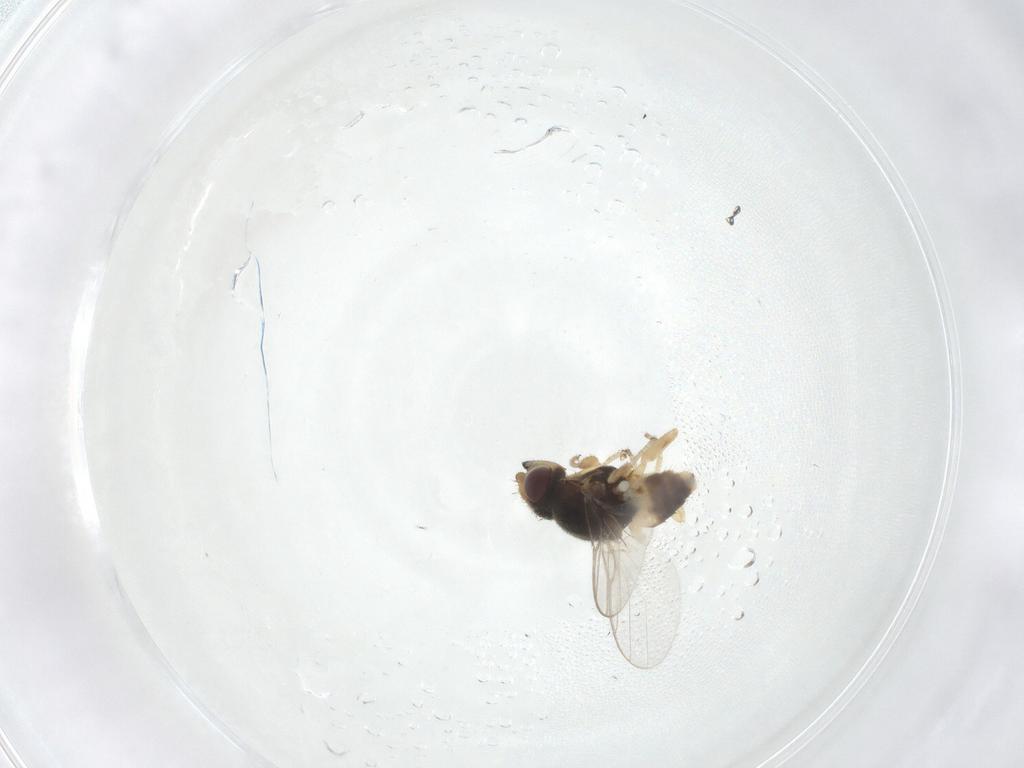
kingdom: Animalia
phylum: Arthropoda
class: Insecta
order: Diptera
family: Chloropidae
